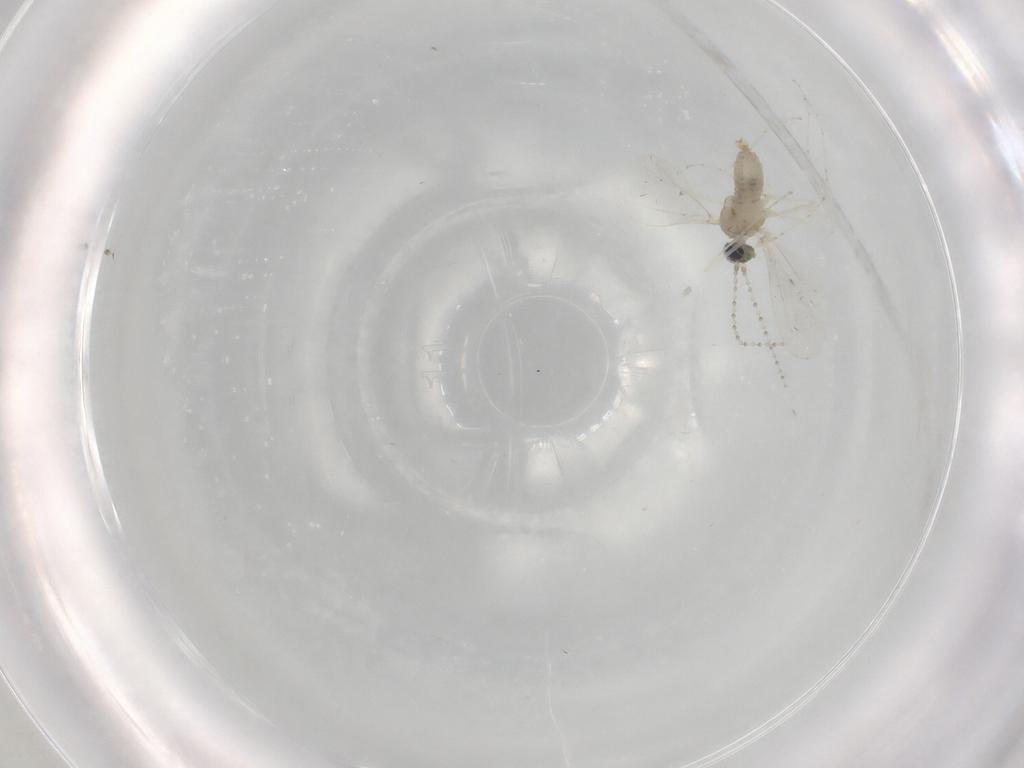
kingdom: Animalia
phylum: Arthropoda
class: Insecta
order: Diptera
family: Cecidomyiidae
